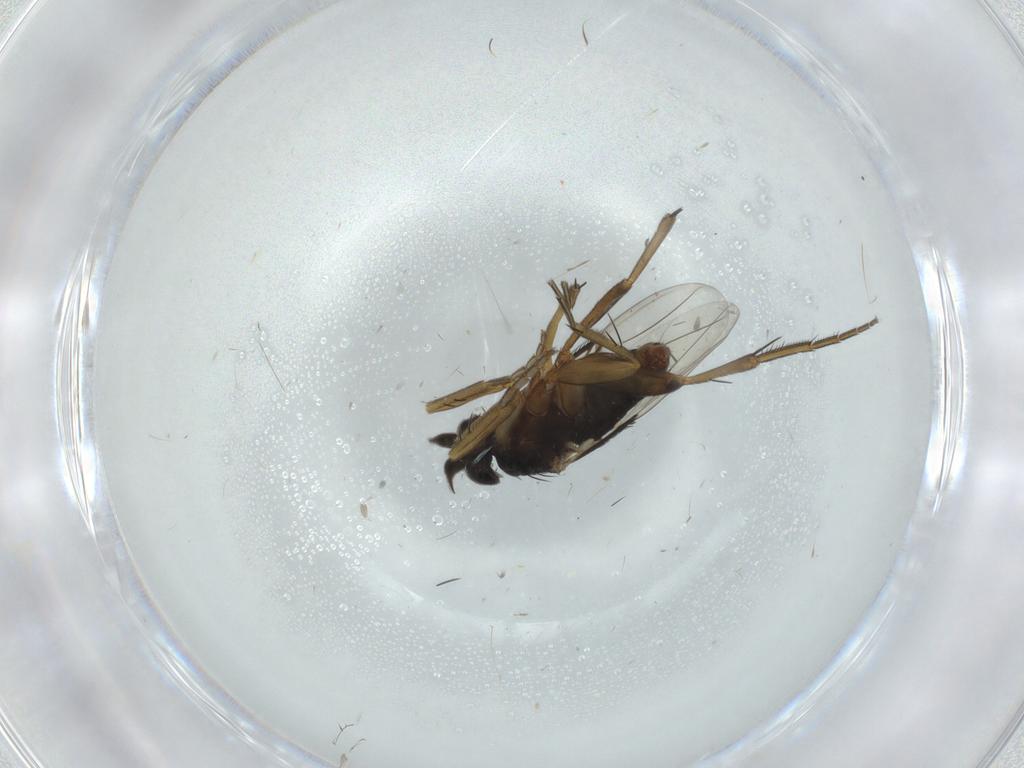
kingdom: Animalia
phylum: Arthropoda
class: Insecta
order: Diptera
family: Phoridae
